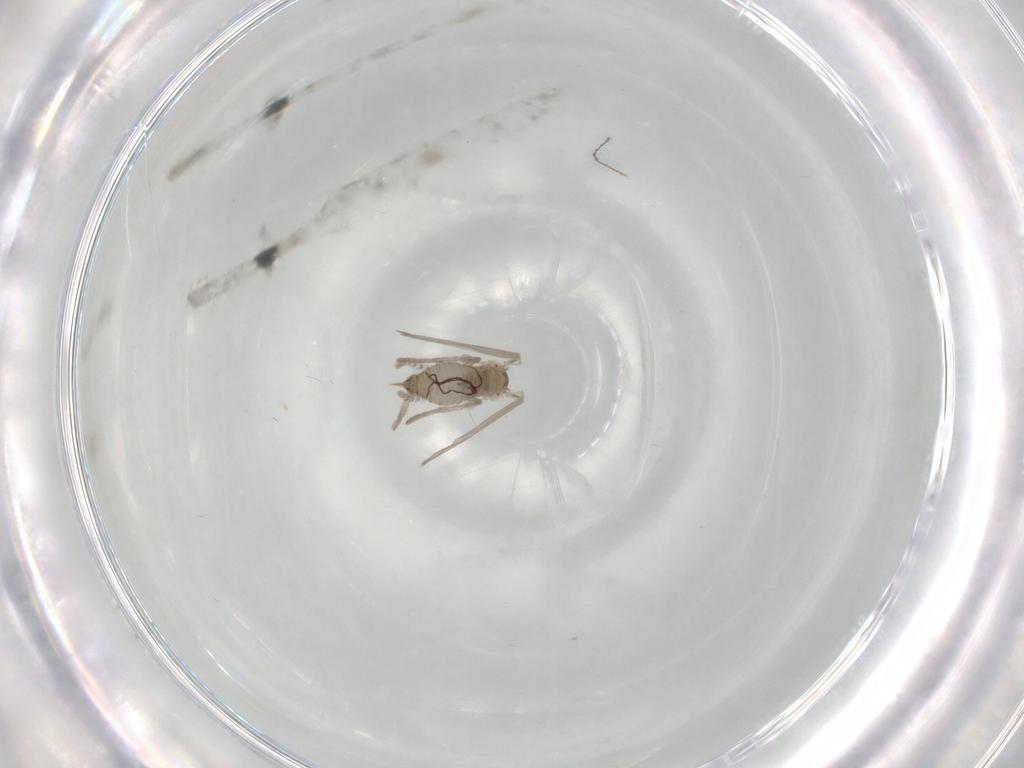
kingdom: Animalia
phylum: Arthropoda
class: Insecta
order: Diptera
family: Psychodidae
